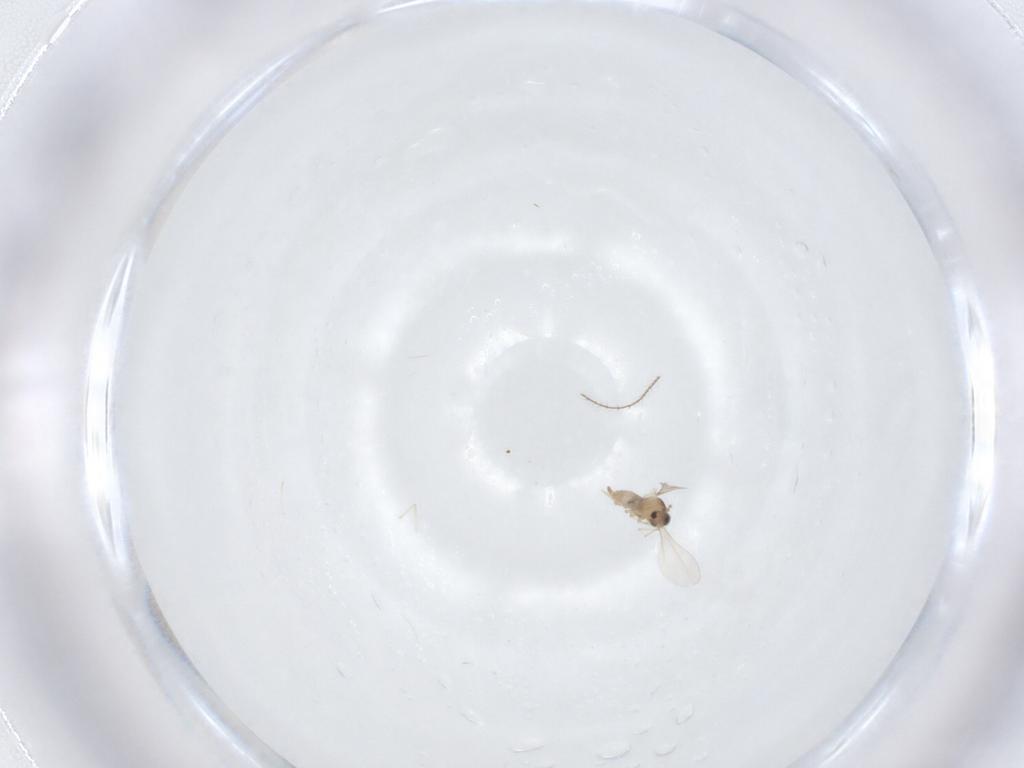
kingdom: Animalia
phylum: Arthropoda
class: Insecta
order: Diptera
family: Cecidomyiidae
